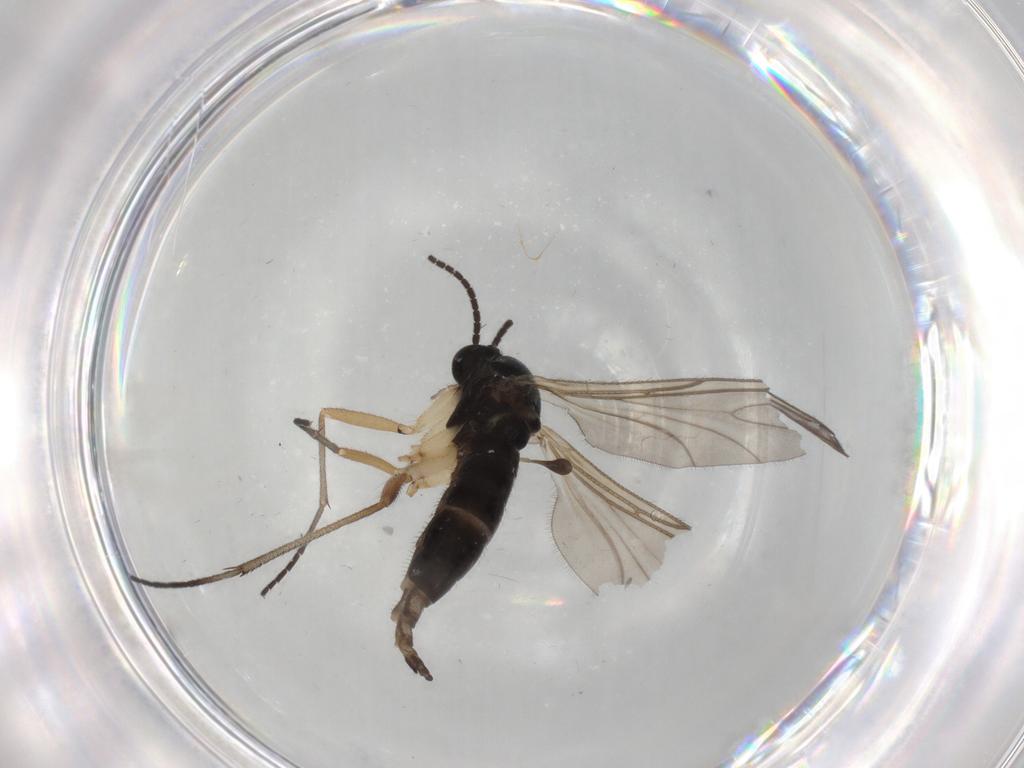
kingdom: Animalia
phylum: Arthropoda
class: Insecta
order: Diptera
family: Sciaridae
